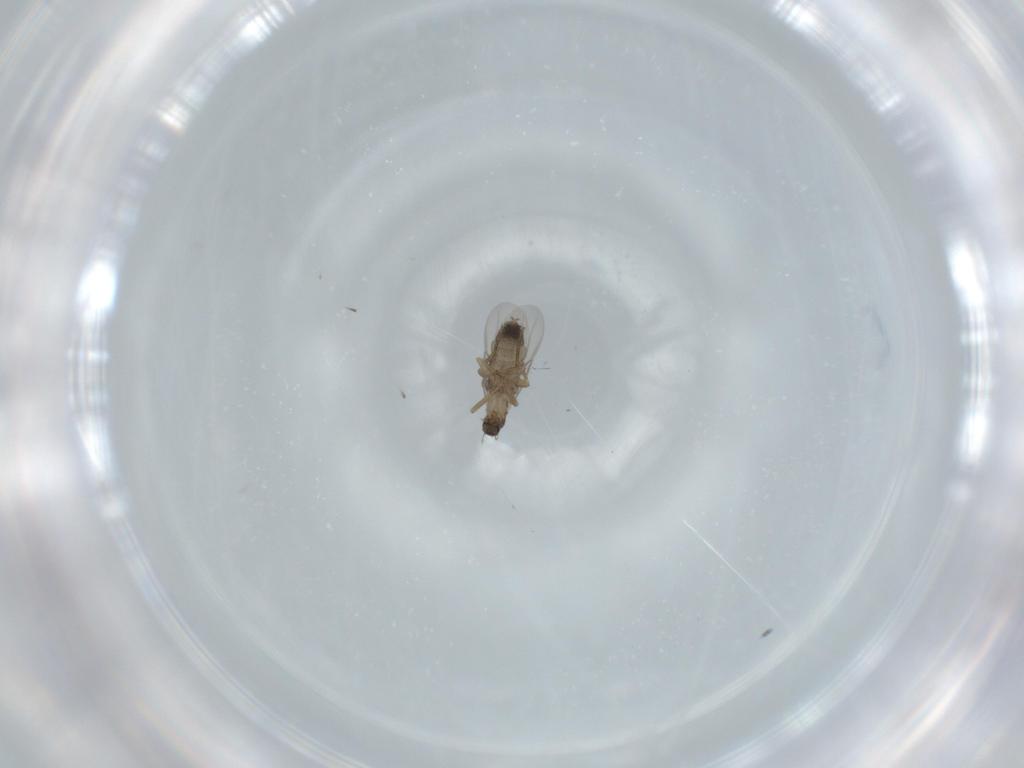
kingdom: Animalia
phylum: Arthropoda
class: Insecta
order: Diptera
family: Phoridae
